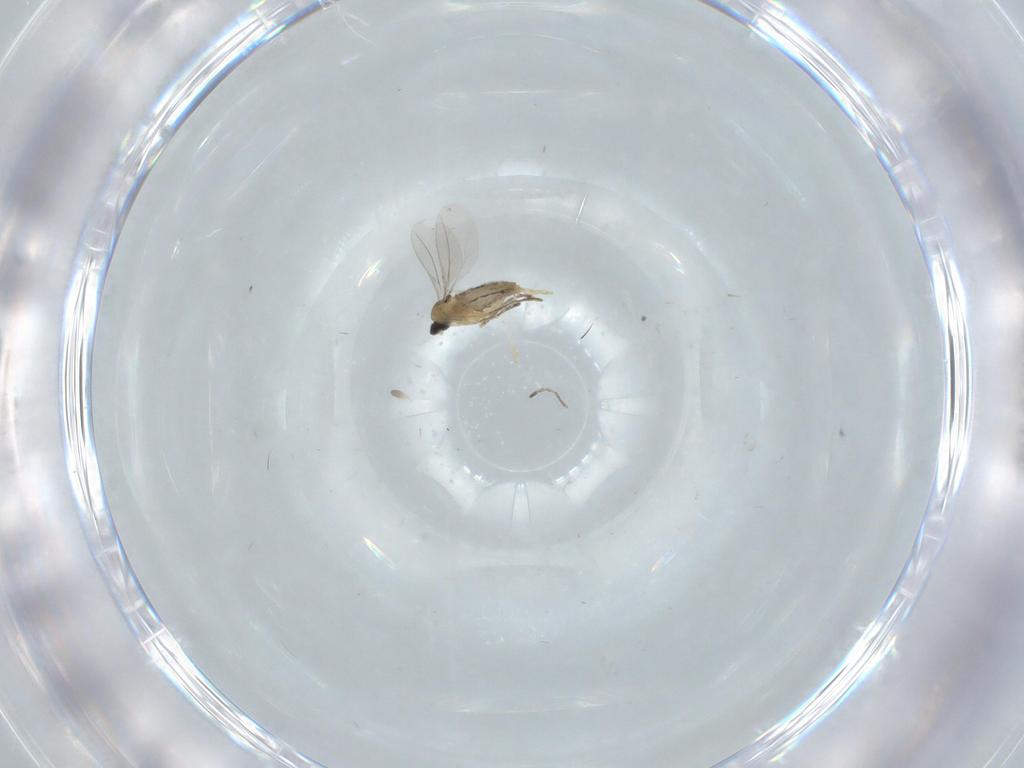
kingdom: Animalia
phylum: Arthropoda
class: Insecta
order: Diptera
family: Cecidomyiidae
